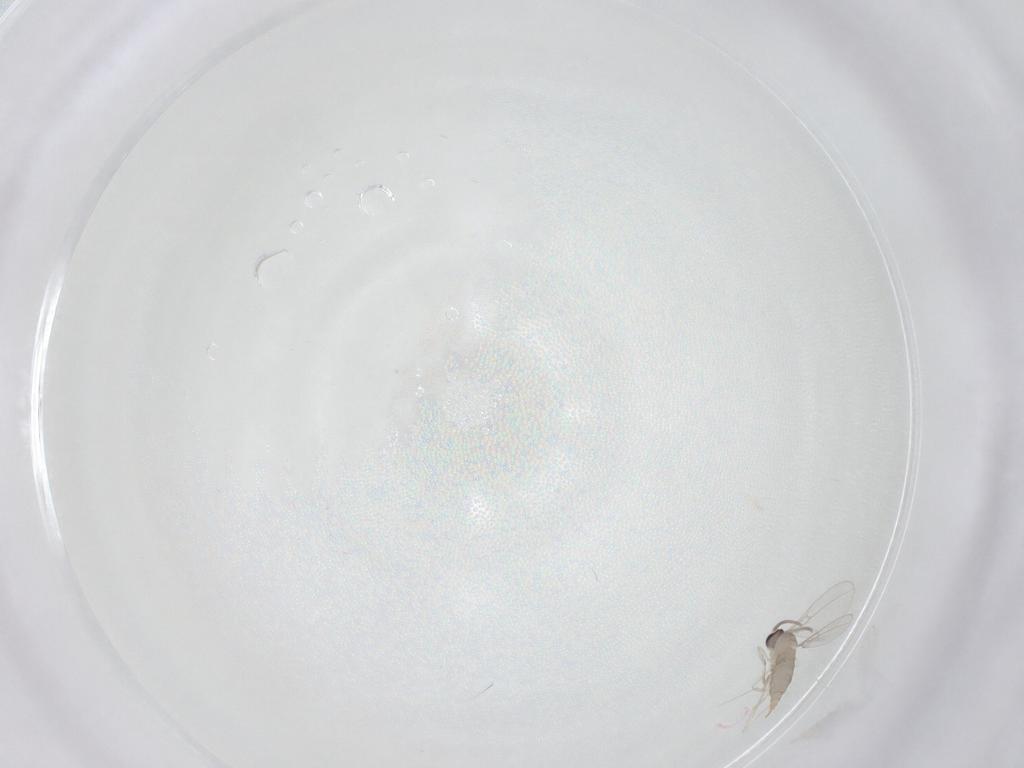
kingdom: Animalia
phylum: Arthropoda
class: Insecta
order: Diptera
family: Cecidomyiidae
